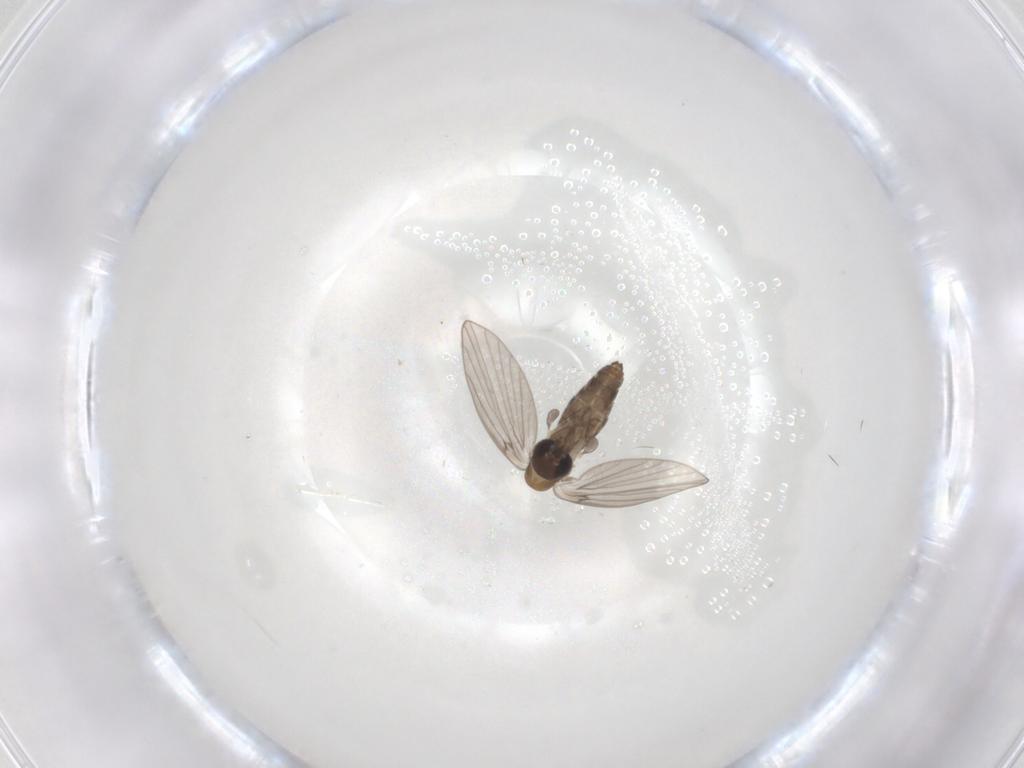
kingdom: Animalia
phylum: Arthropoda
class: Insecta
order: Diptera
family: Psychodidae
